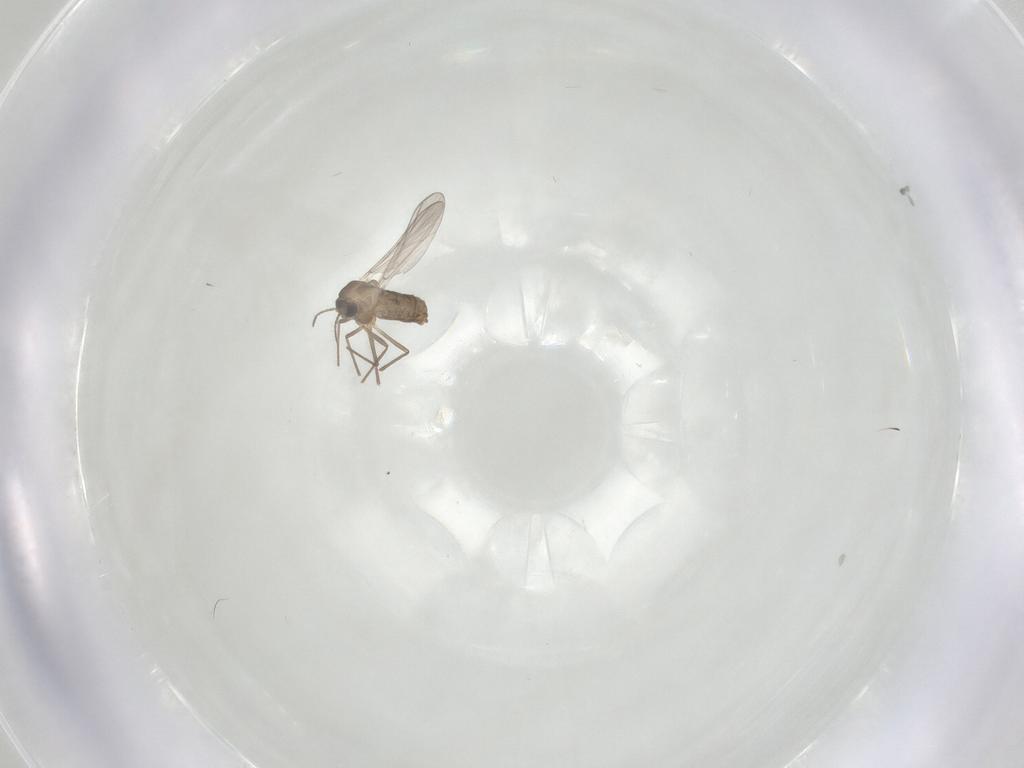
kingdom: Animalia
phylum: Arthropoda
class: Insecta
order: Diptera
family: Chironomidae
